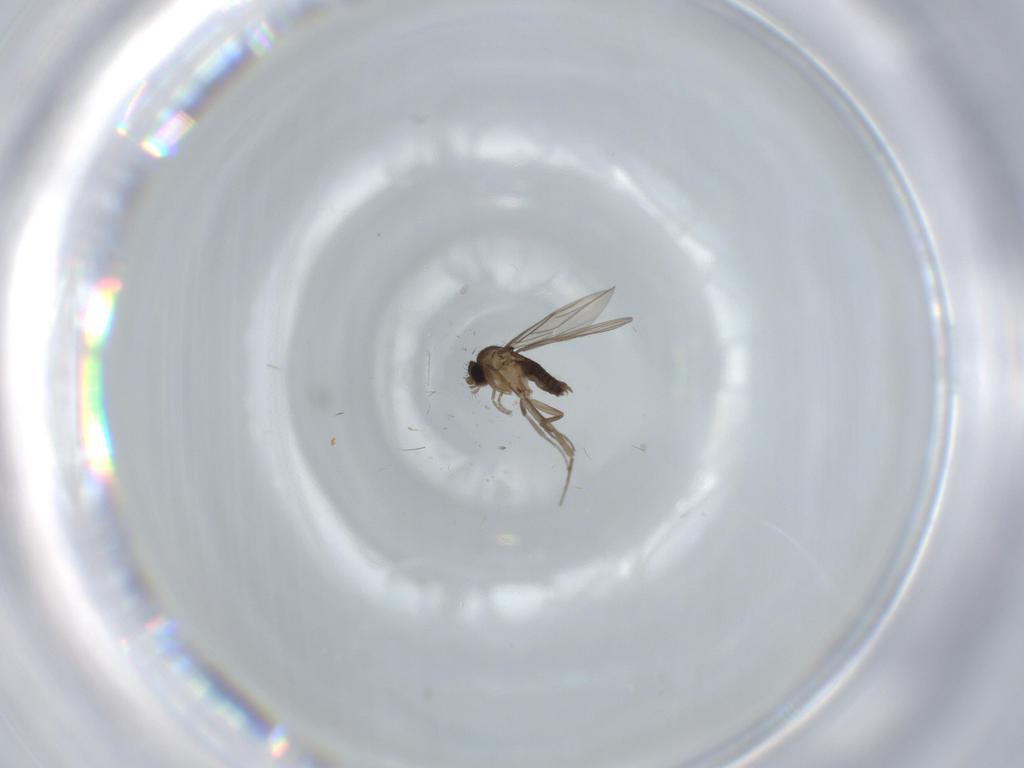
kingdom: Animalia
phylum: Arthropoda
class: Insecta
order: Diptera
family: Phoridae
